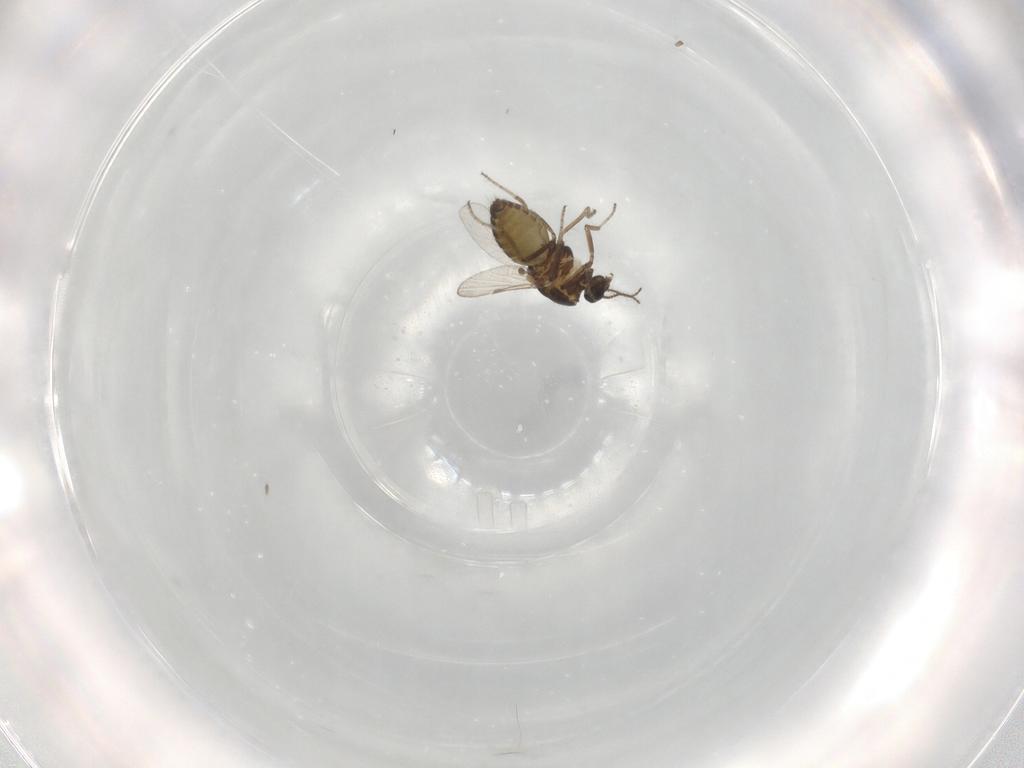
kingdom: Animalia
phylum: Arthropoda
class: Insecta
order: Diptera
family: Ceratopogonidae
